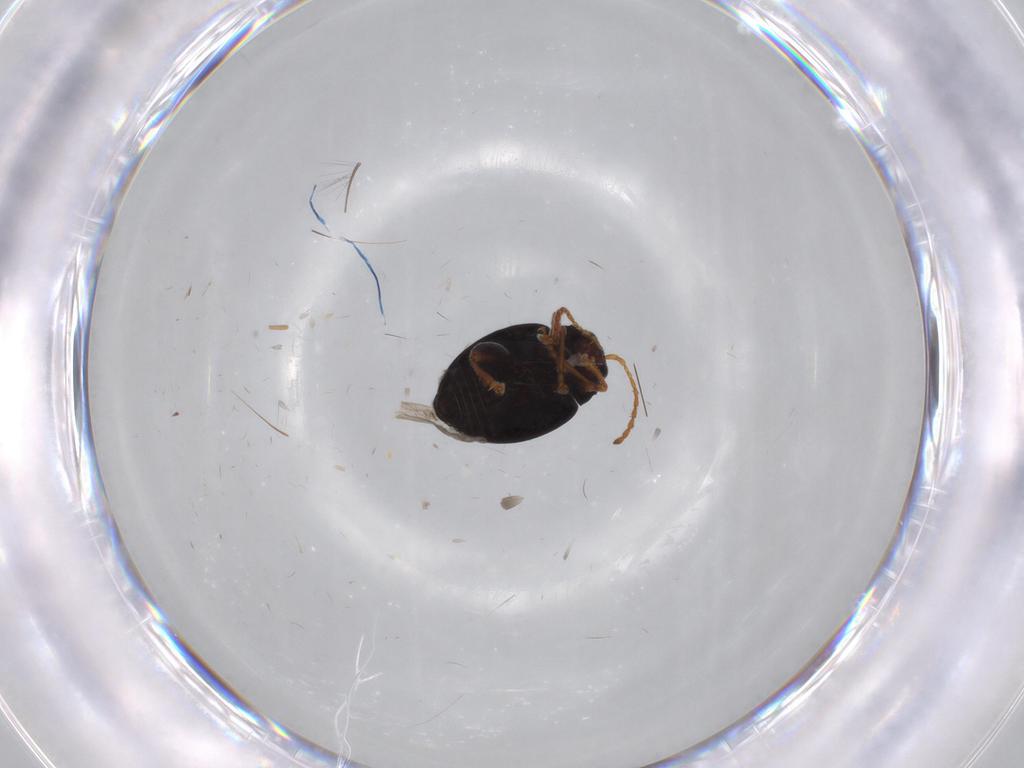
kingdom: Animalia
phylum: Arthropoda
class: Insecta
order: Coleoptera
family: Chrysomelidae
